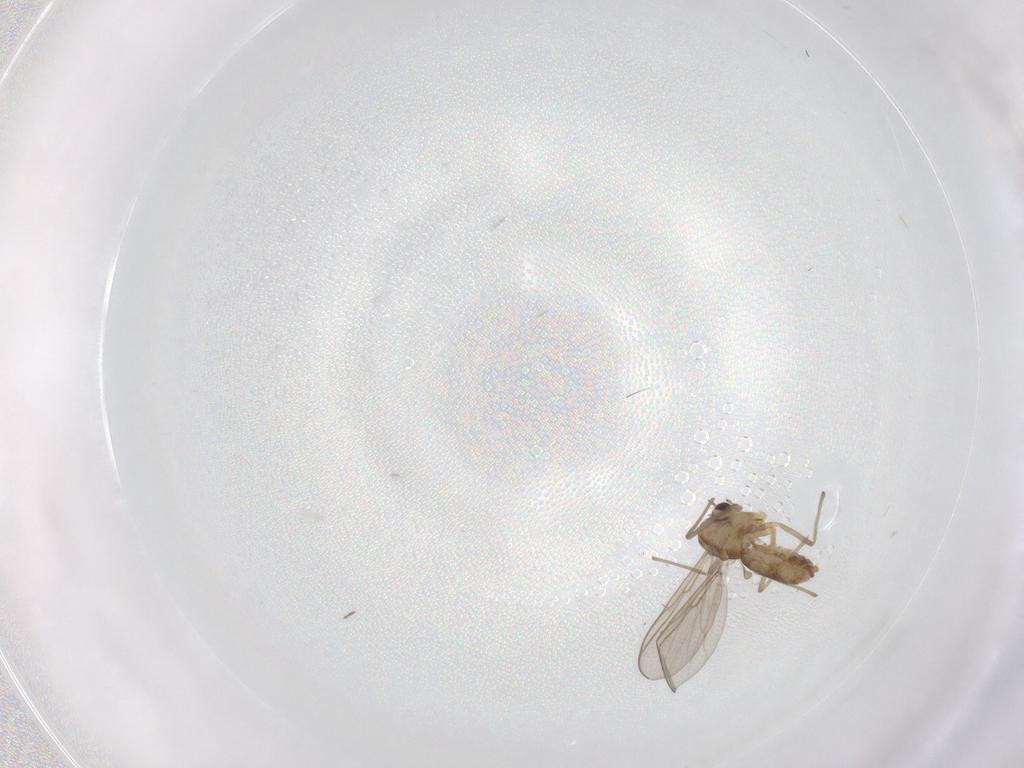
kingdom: Animalia
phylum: Arthropoda
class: Insecta
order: Diptera
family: Chironomidae
